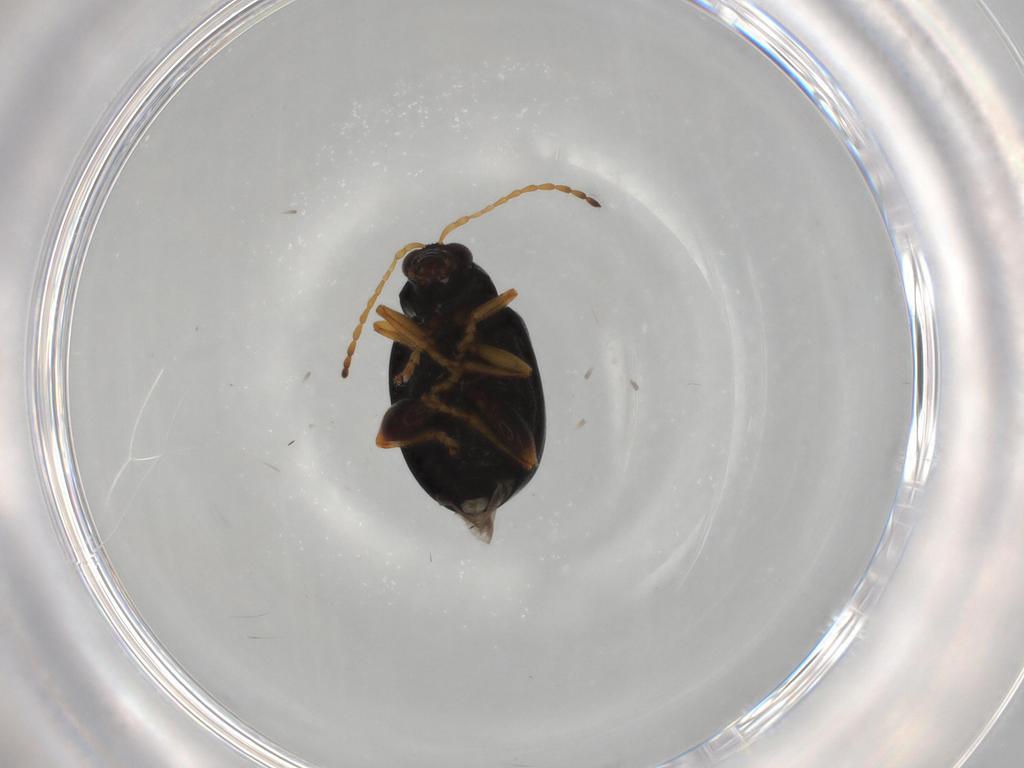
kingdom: Animalia
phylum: Arthropoda
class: Insecta
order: Coleoptera
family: Chrysomelidae
